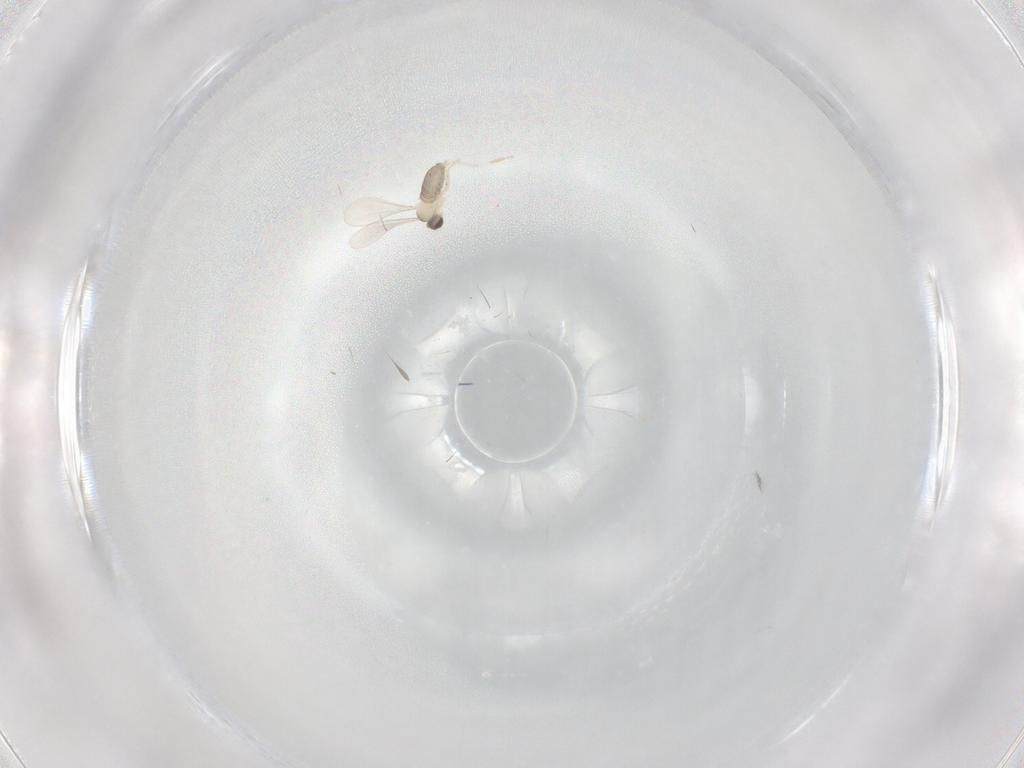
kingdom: Animalia
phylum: Arthropoda
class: Insecta
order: Diptera
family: Cecidomyiidae
